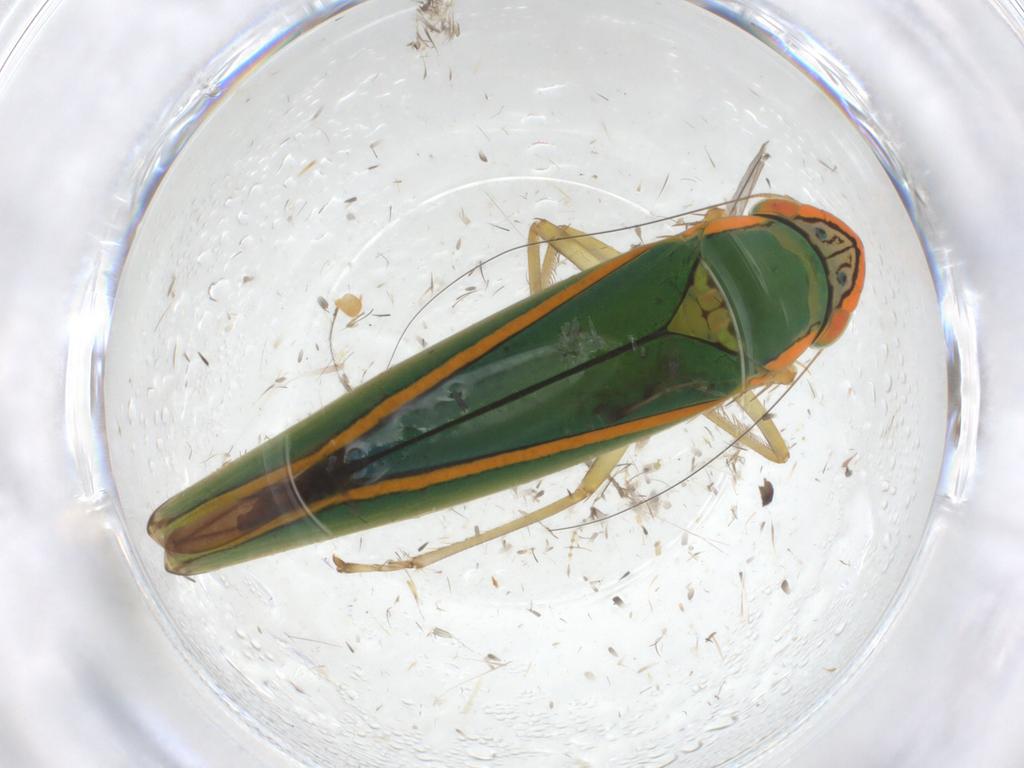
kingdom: Animalia
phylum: Arthropoda
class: Insecta
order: Hemiptera
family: Cicadellidae
